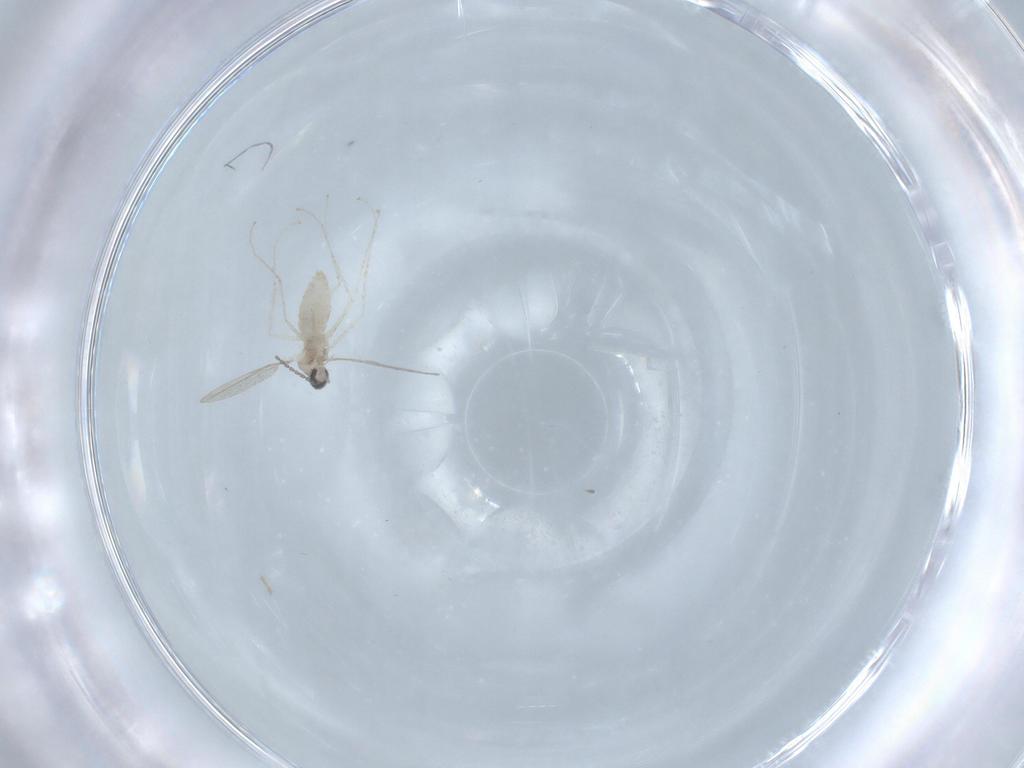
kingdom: Animalia
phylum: Arthropoda
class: Insecta
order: Diptera
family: Cecidomyiidae
